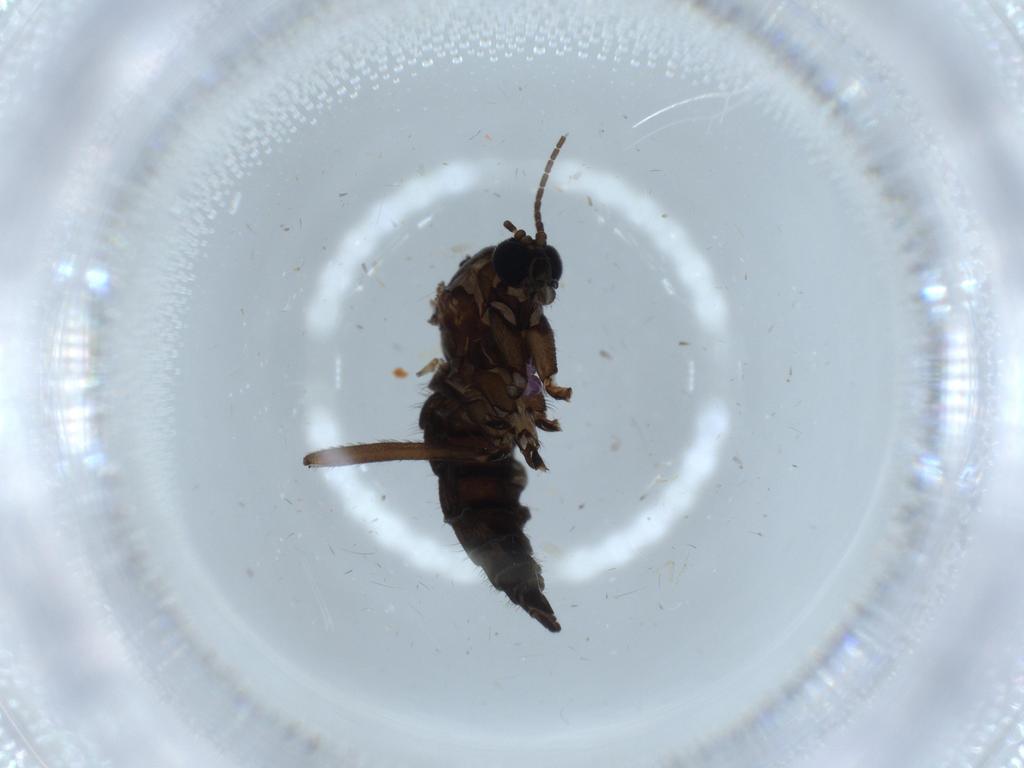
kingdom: Animalia
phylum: Arthropoda
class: Insecta
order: Diptera
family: Sciaridae
